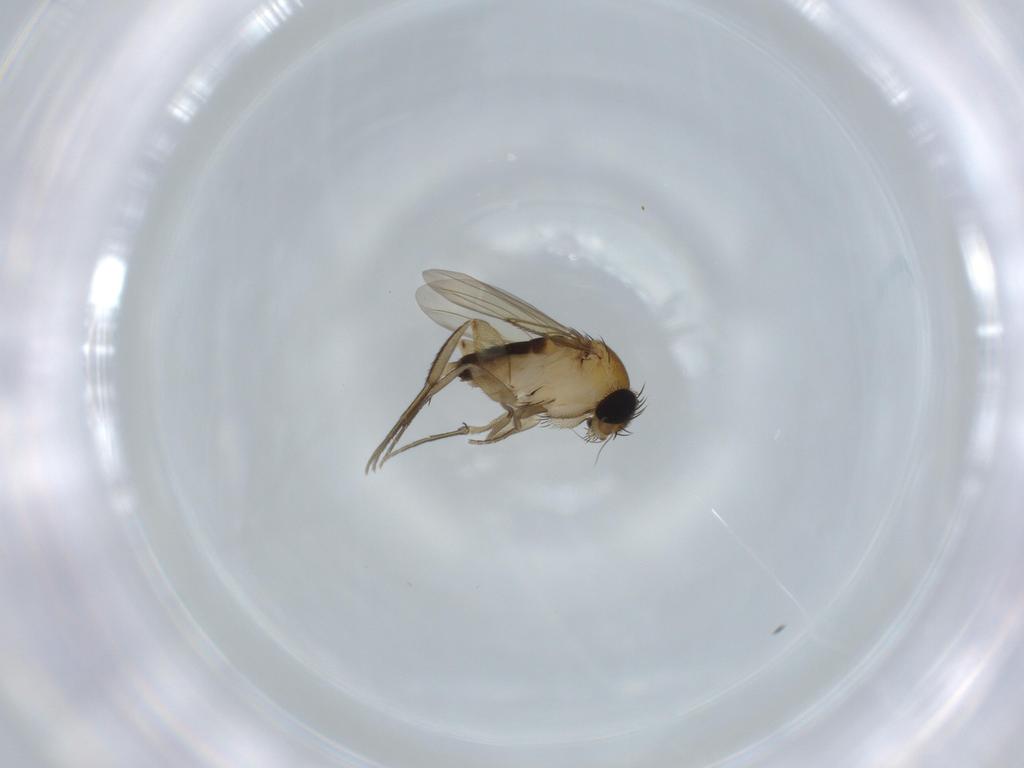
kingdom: Animalia
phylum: Arthropoda
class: Insecta
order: Diptera
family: Phoridae
